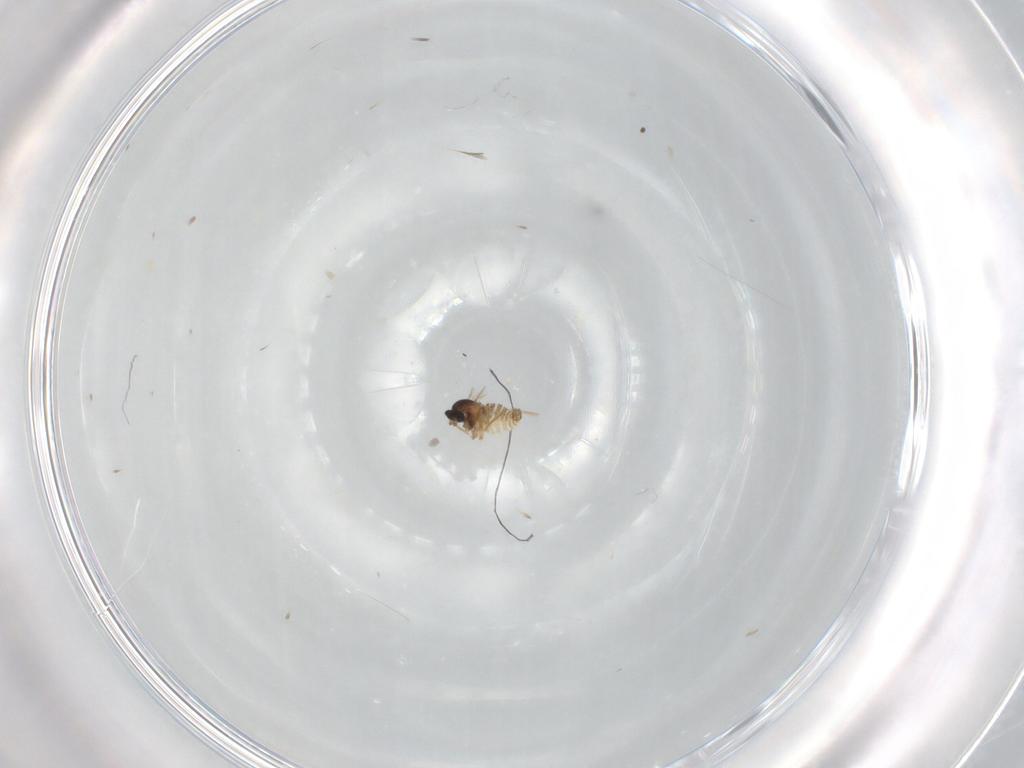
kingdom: Animalia
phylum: Arthropoda
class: Insecta
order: Diptera
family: Cecidomyiidae
